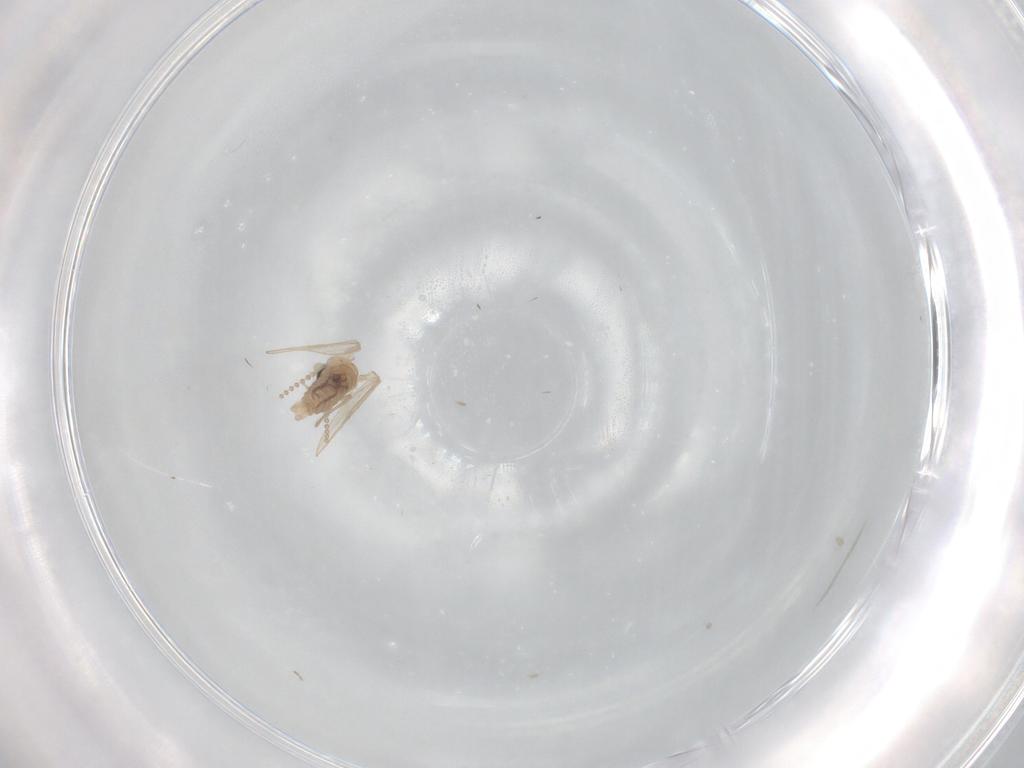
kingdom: Animalia
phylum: Arthropoda
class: Insecta
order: Diptera
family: Psychodidae
